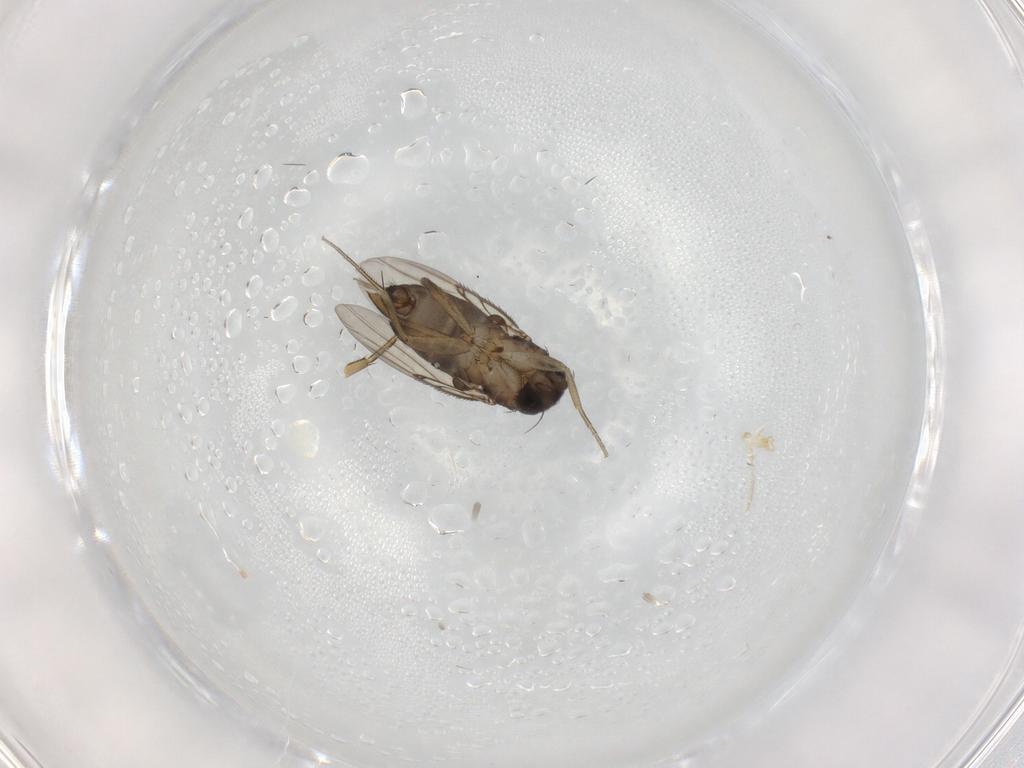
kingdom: Animalia
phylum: Arthropoda
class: Insecta
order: Diptera
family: Phoridae
